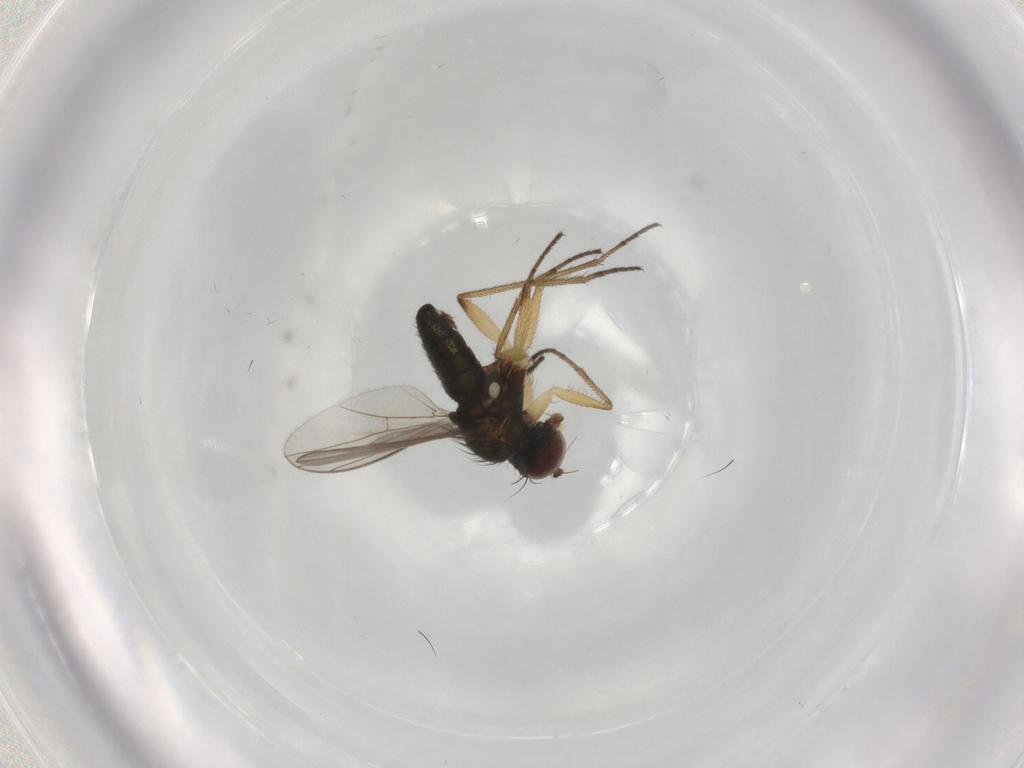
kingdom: Animalia
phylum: Arthropoda
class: Insecta
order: Diptera
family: Dolichopodidae
